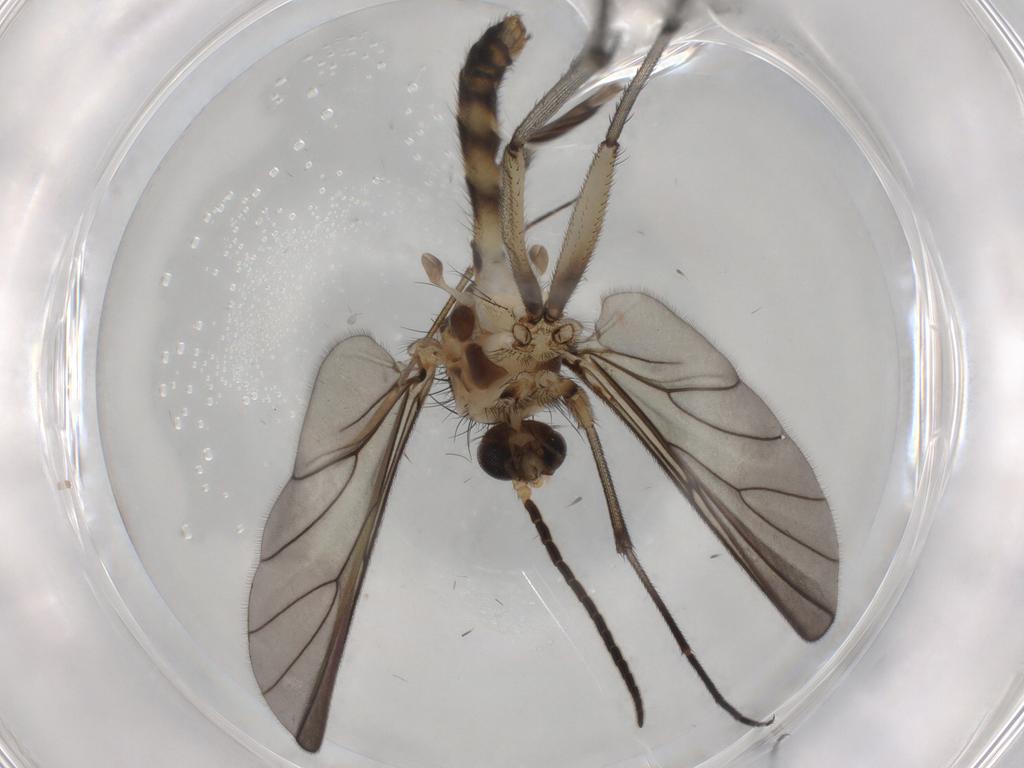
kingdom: Animalia
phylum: Arthropoda
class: Insecta
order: Diptera
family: Mycetophilidae
